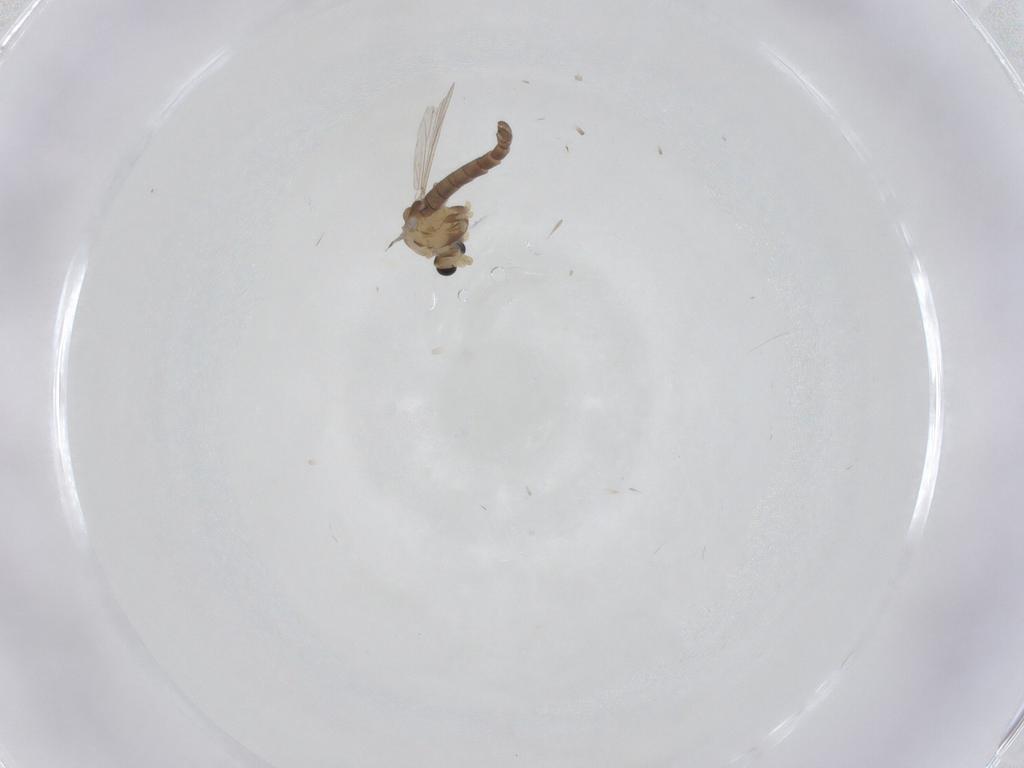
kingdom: Animalia
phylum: Arthropoda
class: Insecta
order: Diptera
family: Chironomidae
